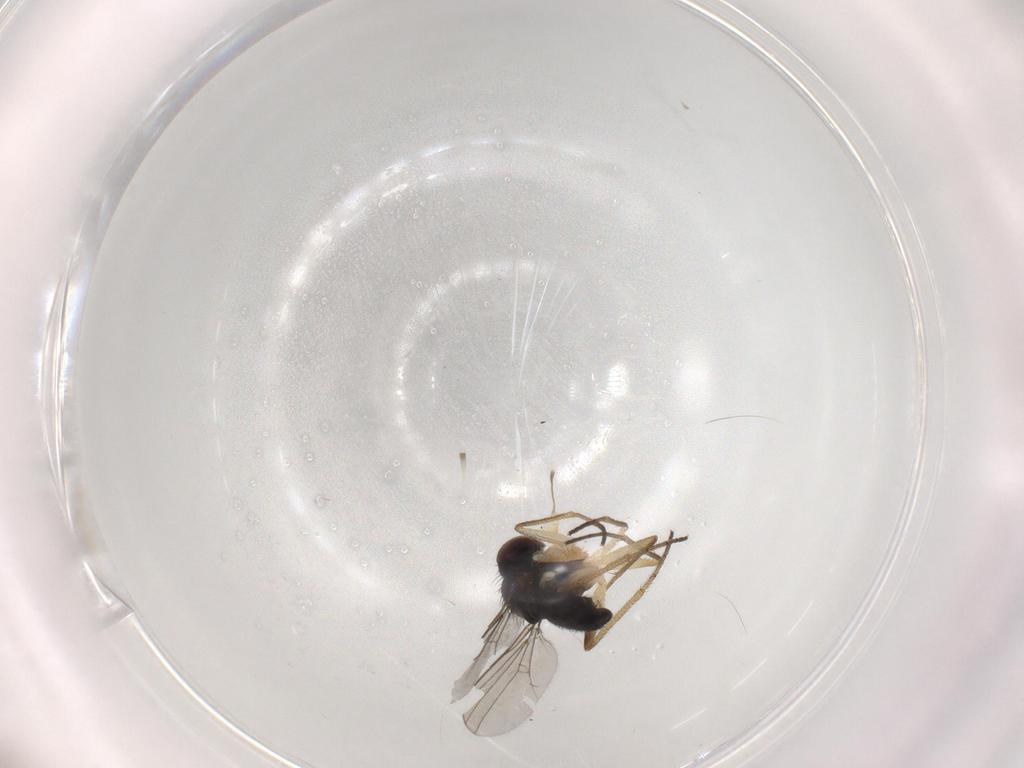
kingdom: Animalia
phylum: Arthropoda
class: Insecta
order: Diptera
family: Dolichopodidae
